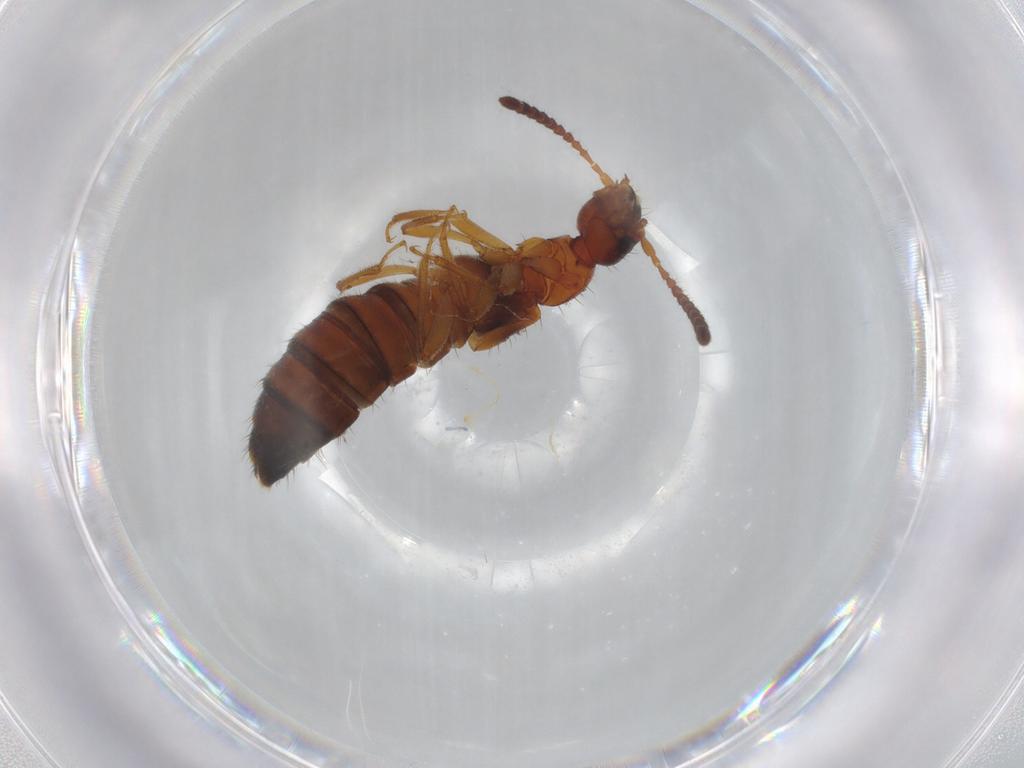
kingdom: Animalia
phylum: Arthropoda
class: Insecta
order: Coleoptera
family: Staphylinidae
